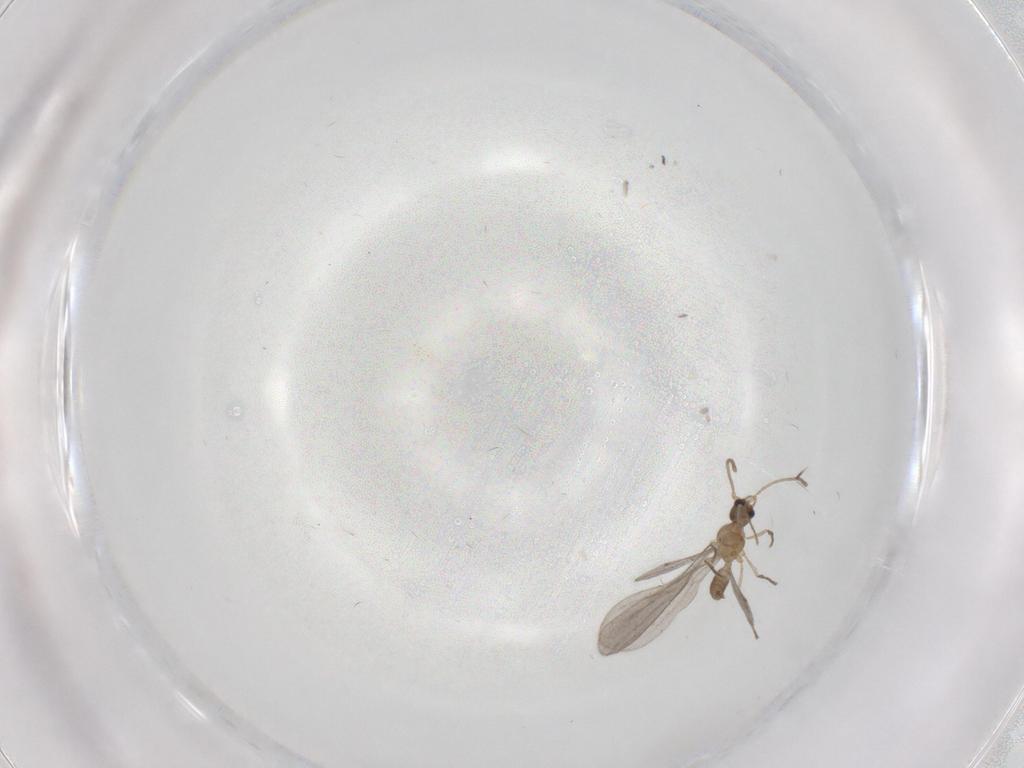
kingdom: Animalia
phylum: Arthropoda
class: Insecta
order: Hymenoptera
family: Formicidae
